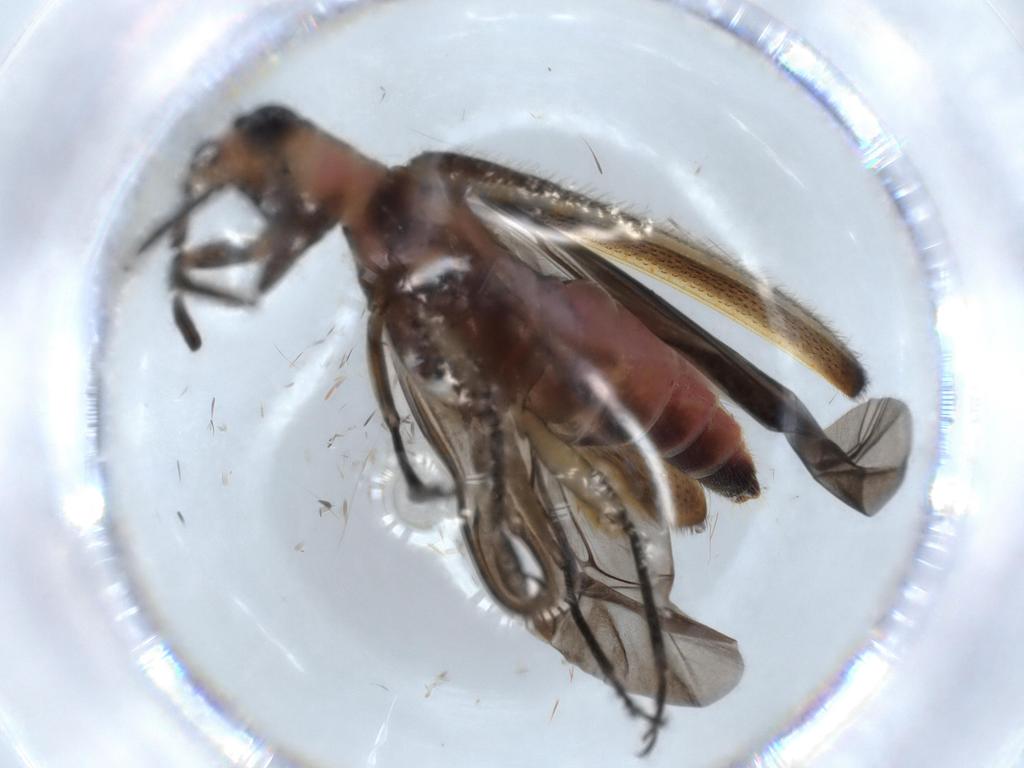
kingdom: Animalia
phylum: Arthropoda
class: Insecta
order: Coleoptera
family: Cleridae
